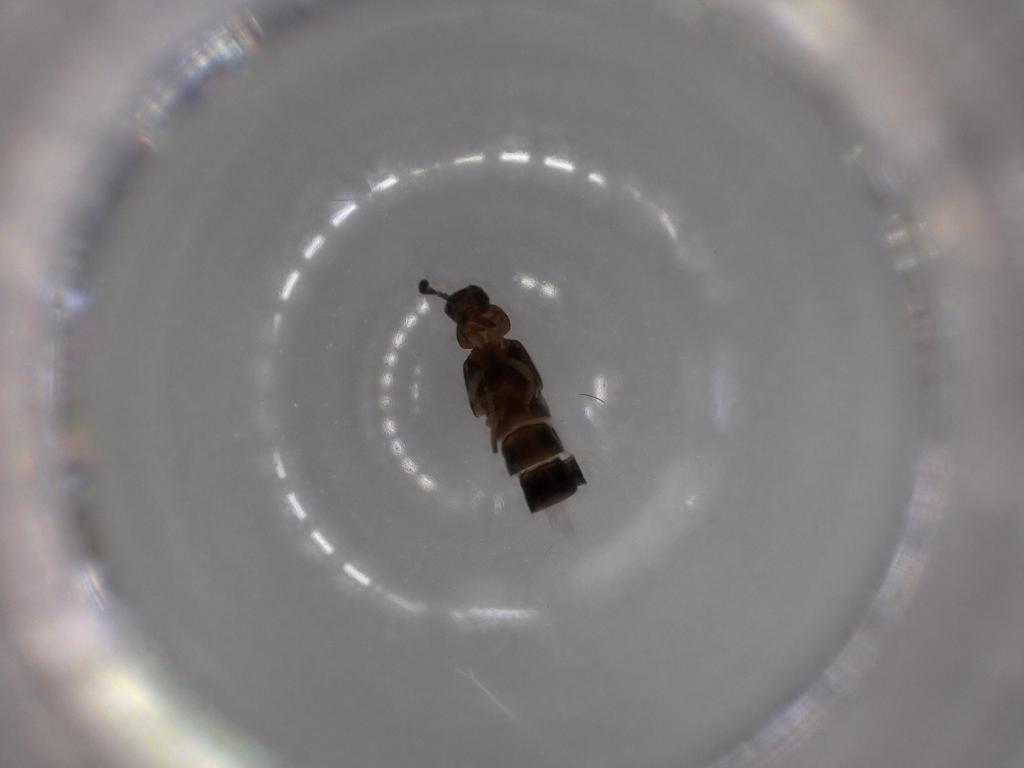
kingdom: Animalia
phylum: Arthropoda
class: Insecta
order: Coleoptera
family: Staphylinidae
